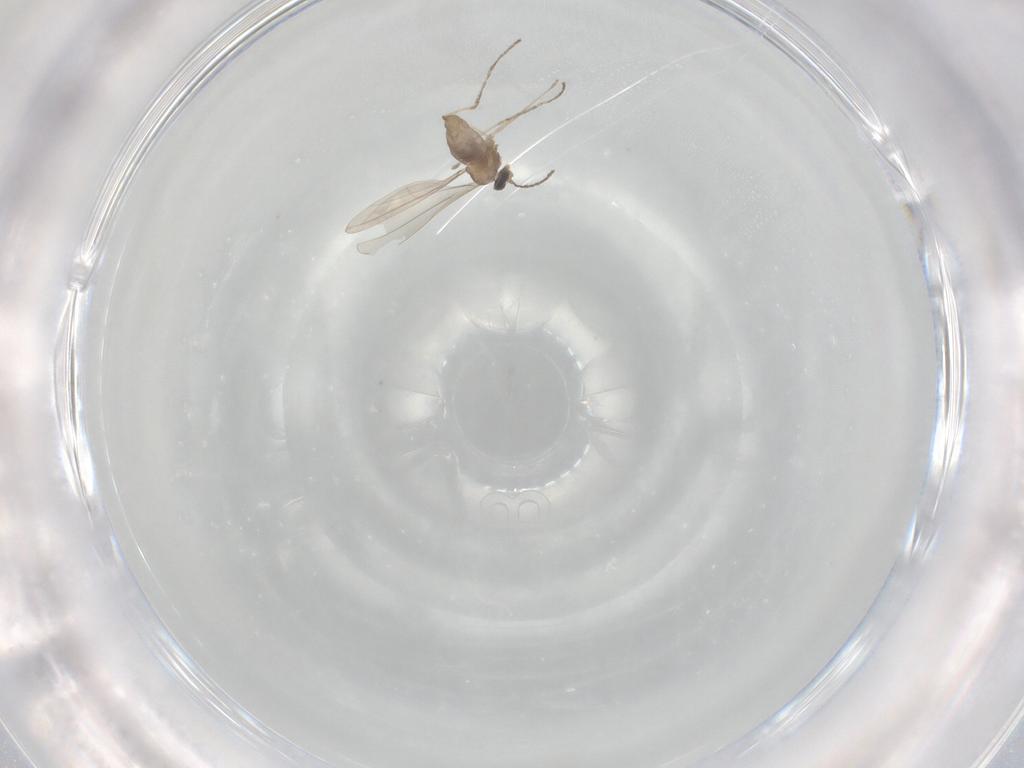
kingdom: Animalia
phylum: Arthropoda
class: Insecta
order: Diptera
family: Cecidomyiidae
